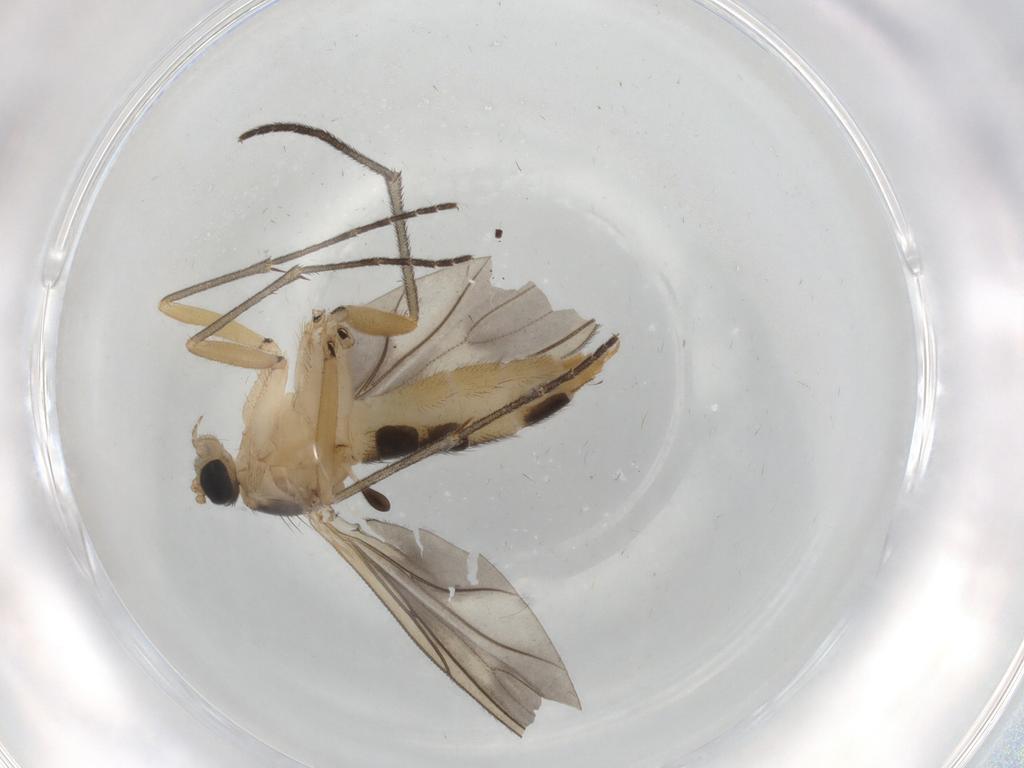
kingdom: Animalia
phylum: Arthropoda
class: Insecta
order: Diptera
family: Sciaridae
